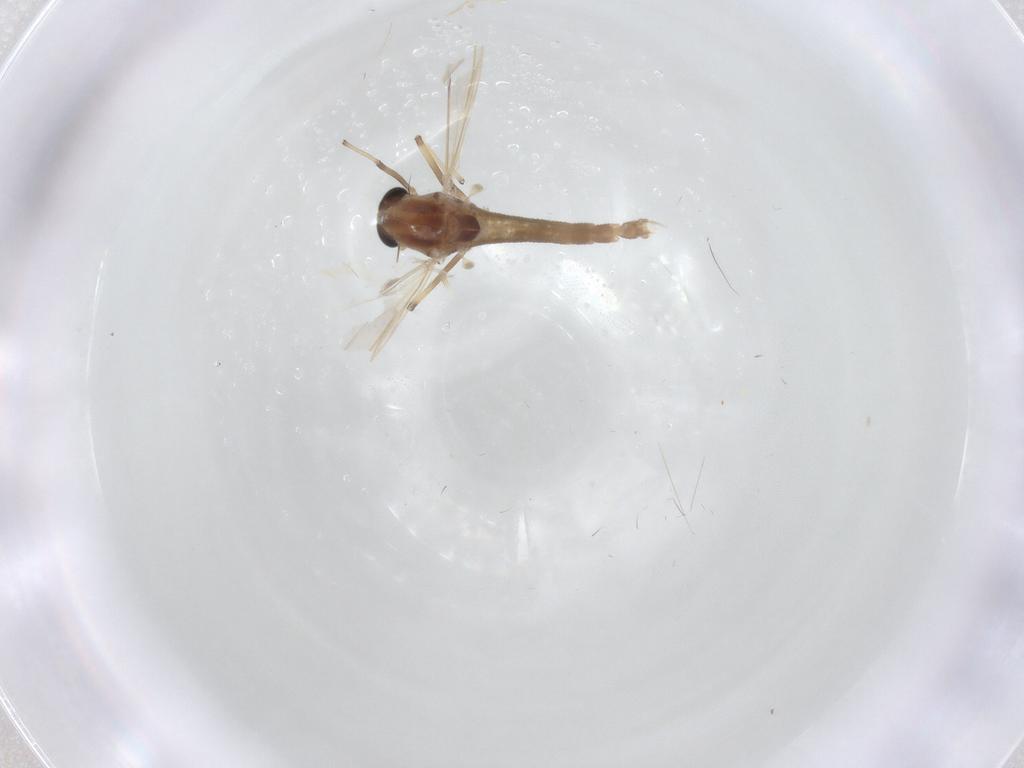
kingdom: Animalia
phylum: Arthropoda
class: Insecta
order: Diptera
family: Chironomidae
